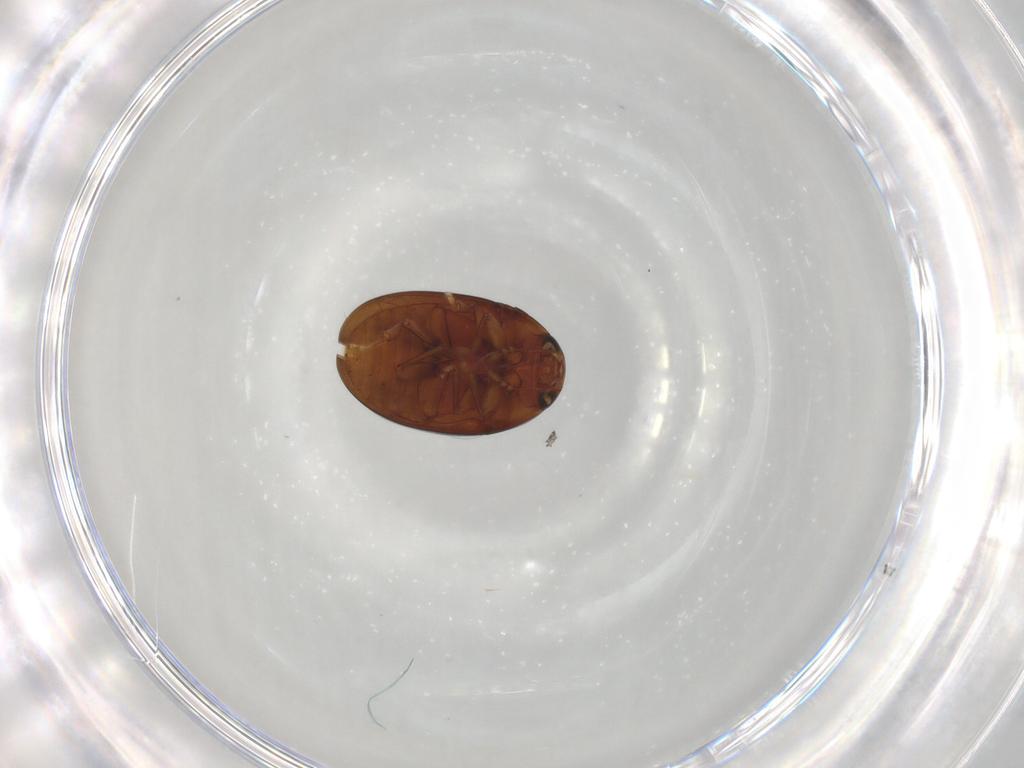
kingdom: Animalia
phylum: Arthropoda
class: Insecta
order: Coleoptera
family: Phalacridae
